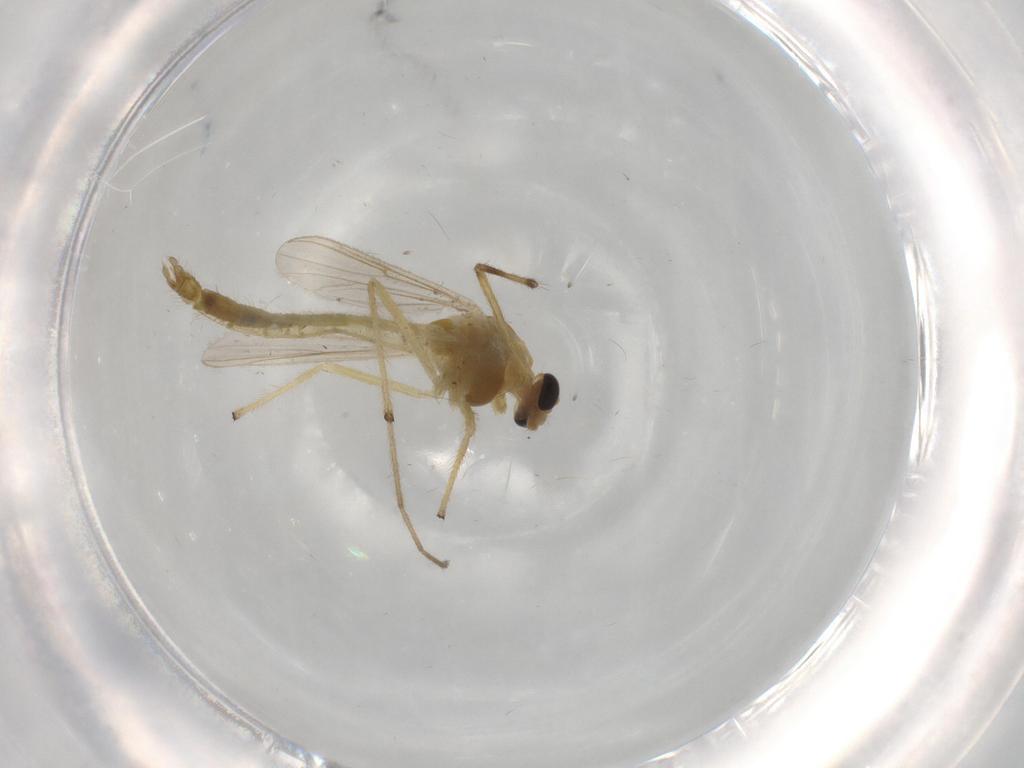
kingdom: Animalia
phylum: Arthropoda
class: Insecta
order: Diptera
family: Chironomidae
